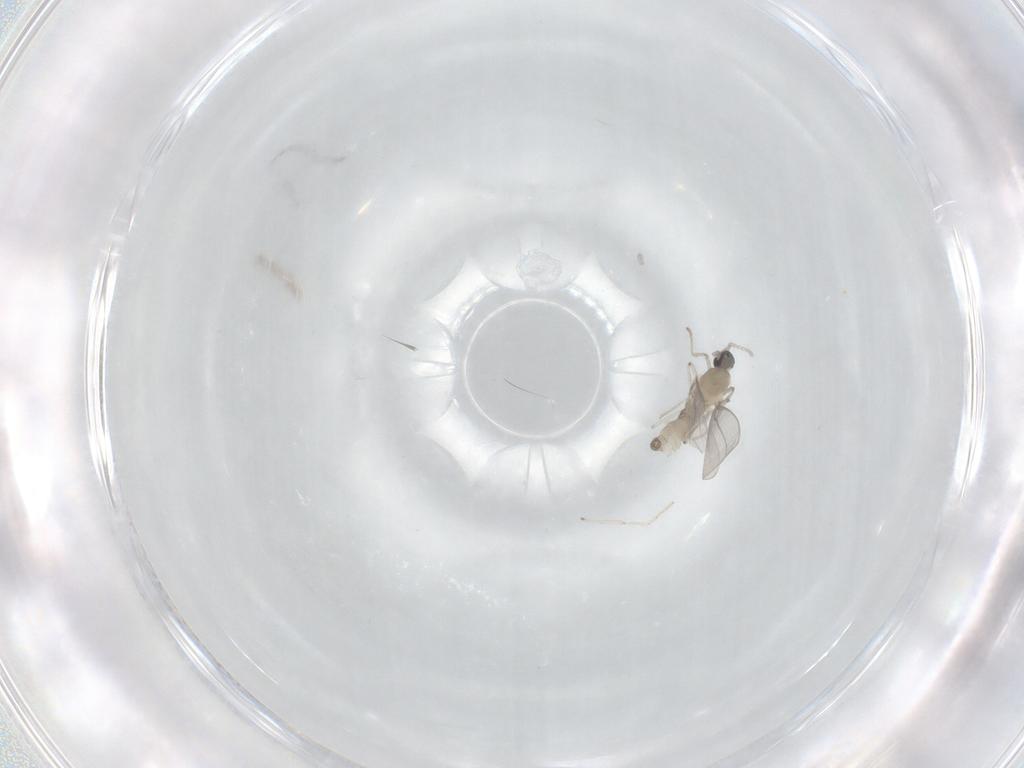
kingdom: Animalia
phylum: Arthropoda
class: Insecta
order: Diptera
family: Cecidomyiidae
